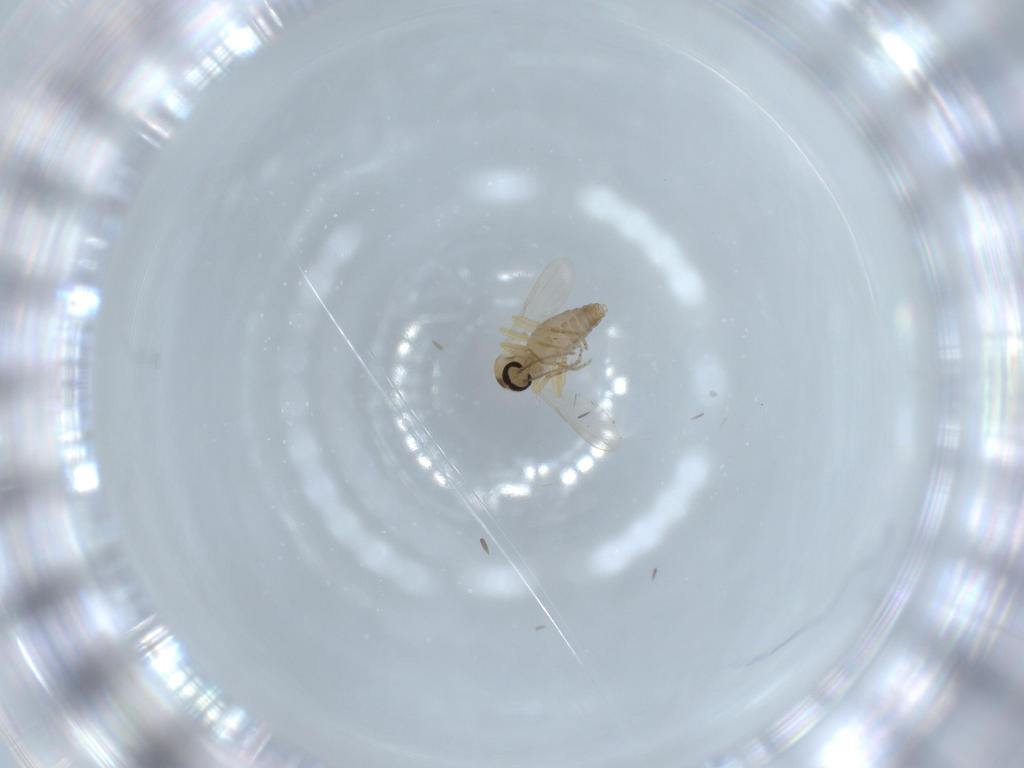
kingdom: Animalia
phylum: Arthropoda
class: Insecta
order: Diptera
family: Ceratopogonidae
